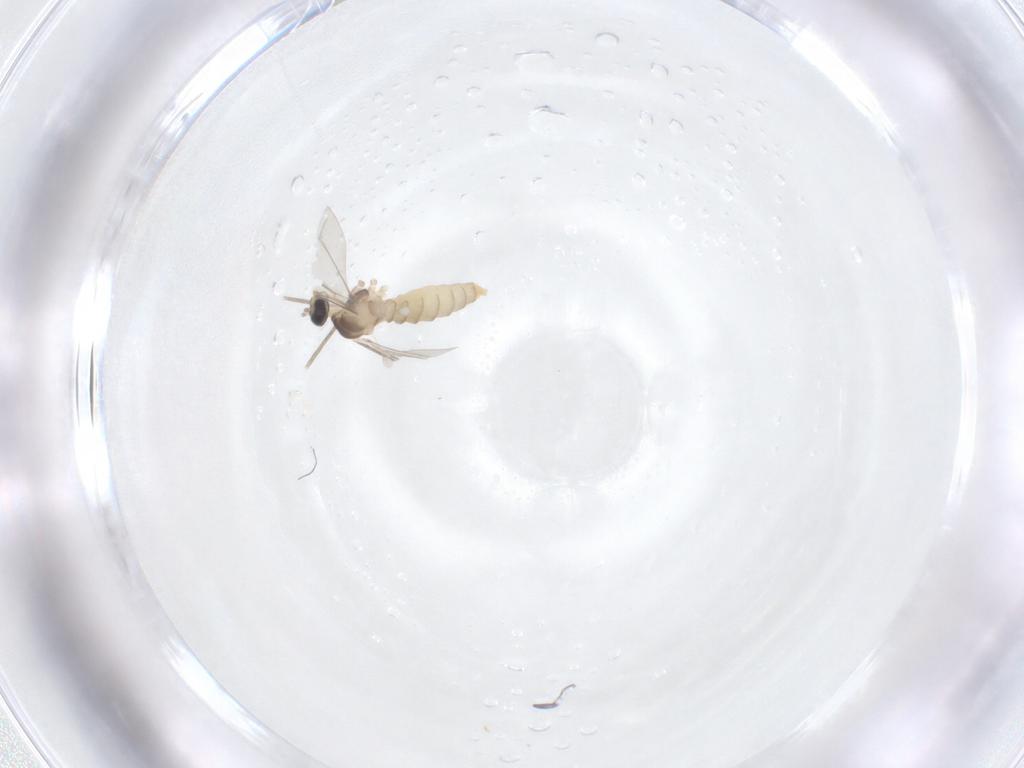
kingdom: Animalia
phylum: Arthropoda
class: Insecta
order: Diptera
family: Cecidomyiidae
